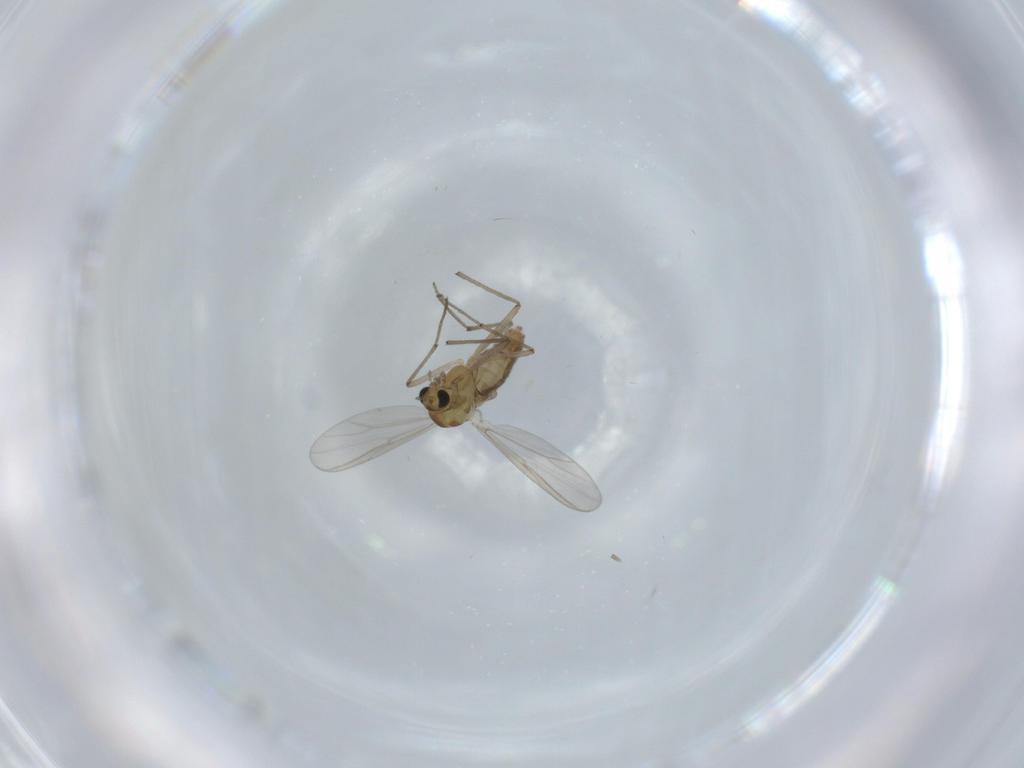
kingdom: Animalia
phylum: Arthropoda
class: Insecta
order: Diptera
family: Chironomidae
